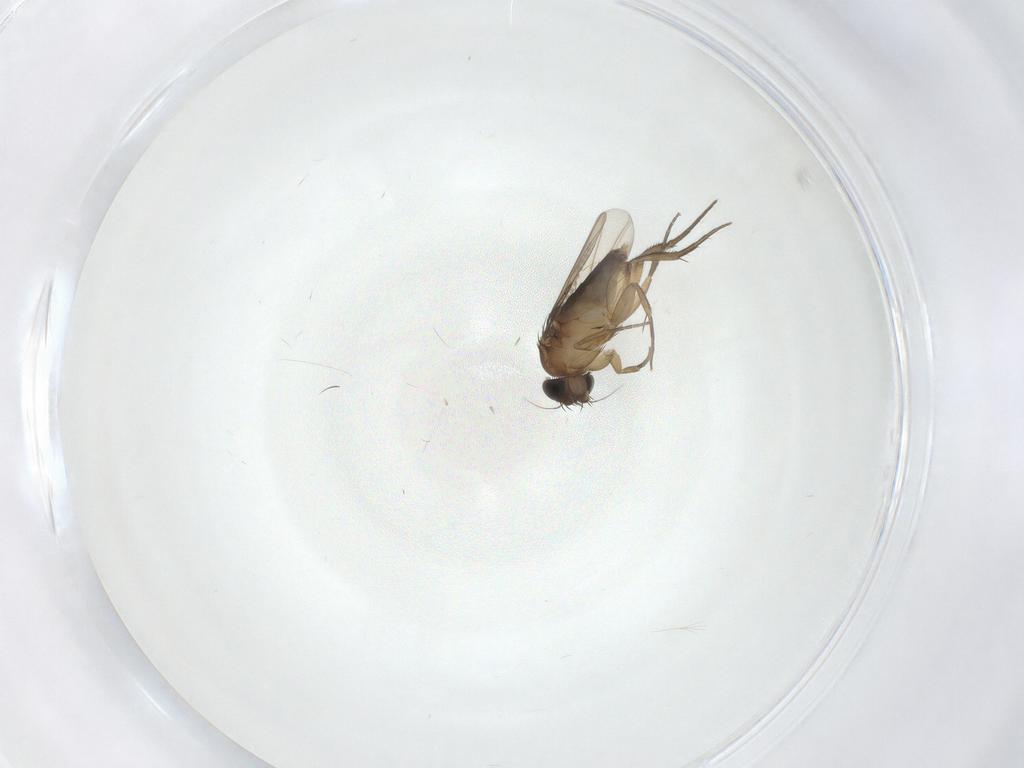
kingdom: Animalia
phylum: Arthropoda
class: Insecta
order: Diptera
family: Phoridae
